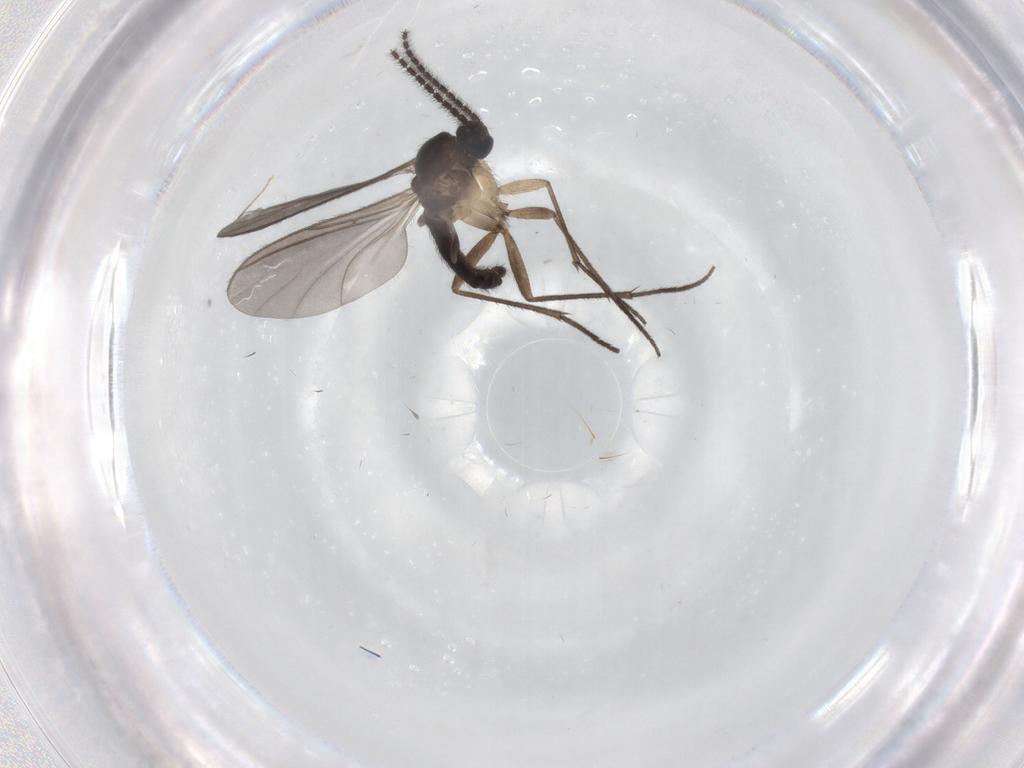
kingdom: Animalia
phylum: Arthropoda
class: Insecta
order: Diptera
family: Sciaridae
